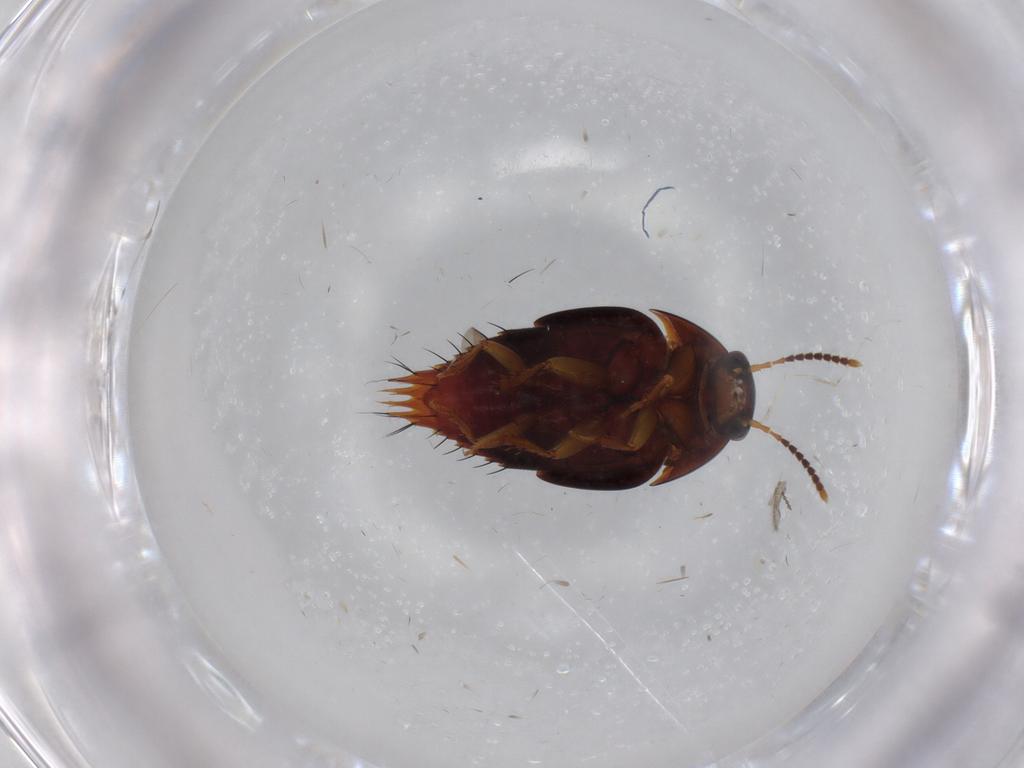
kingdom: Animalia
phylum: Arthropoda
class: Insecta
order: Coleoptera
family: Staphylinidae
